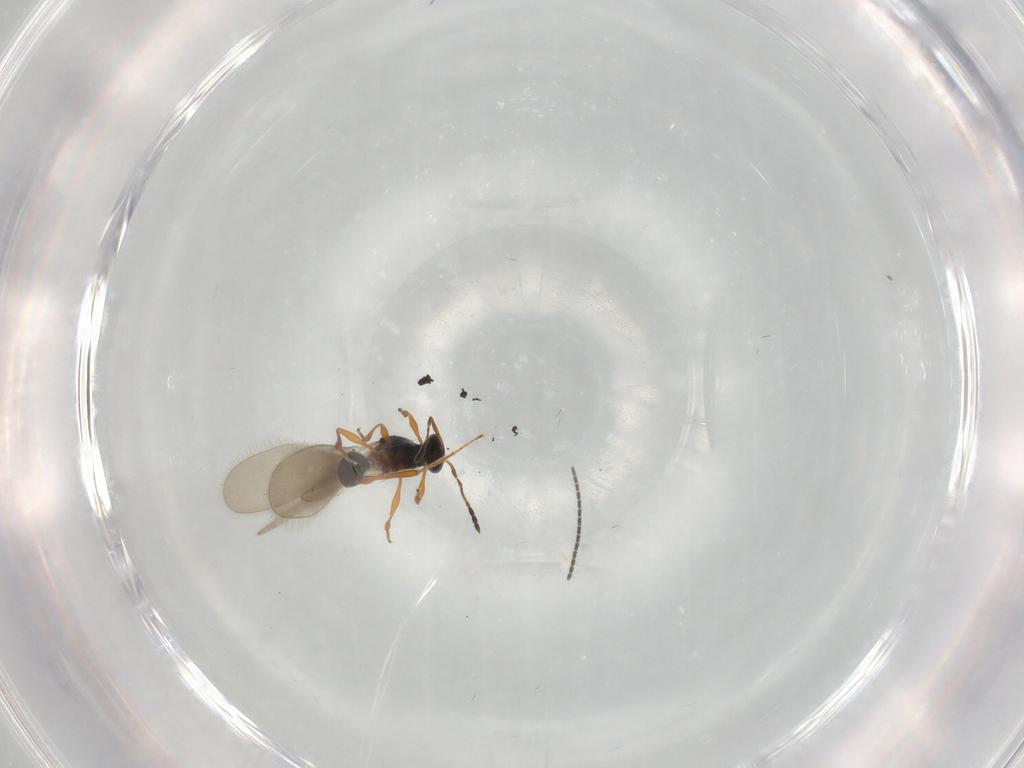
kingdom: Animalia
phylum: Arthropoda
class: Insecta
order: Hymenoptera
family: Platygastridae
